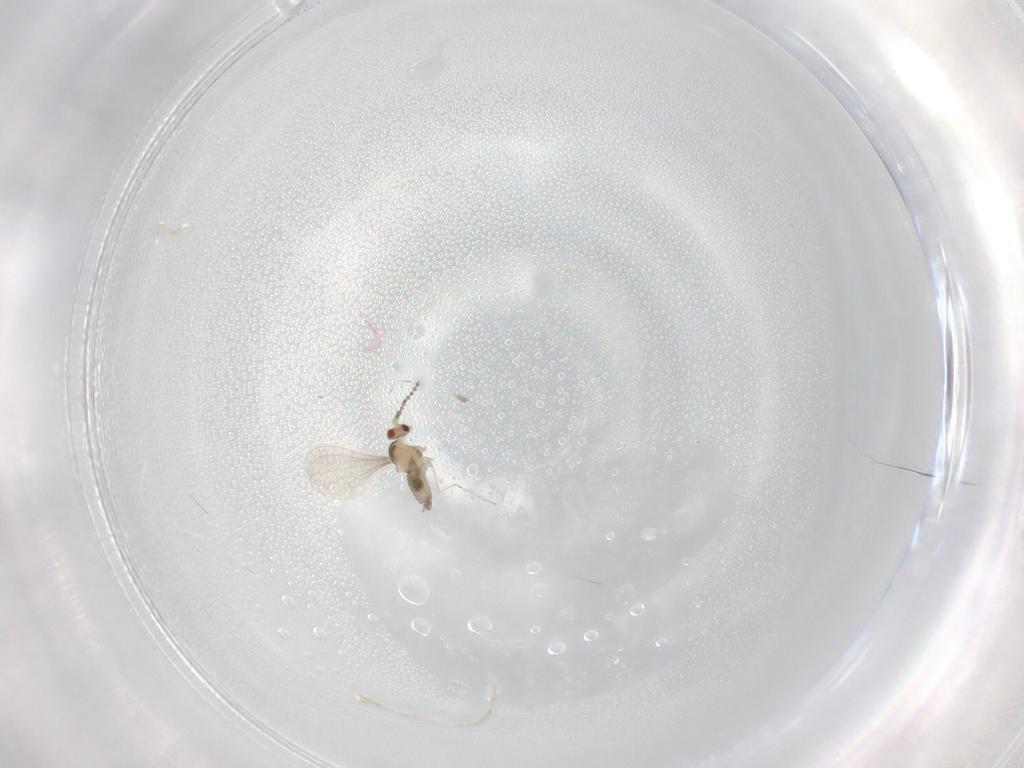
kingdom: Animalia
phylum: Arthropoda
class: Insecta
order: Diptera
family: Cecidomyiidae
